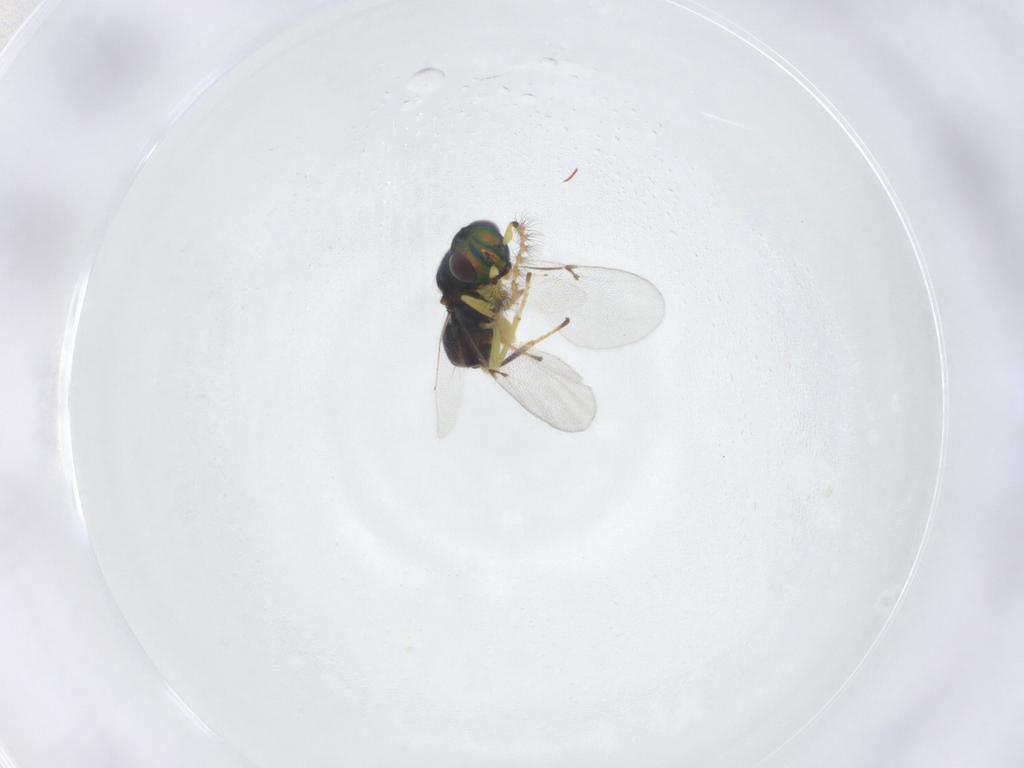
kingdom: Animalia
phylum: Arthropoda
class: Insecta
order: Hymenoptera
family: Encyrtidae
